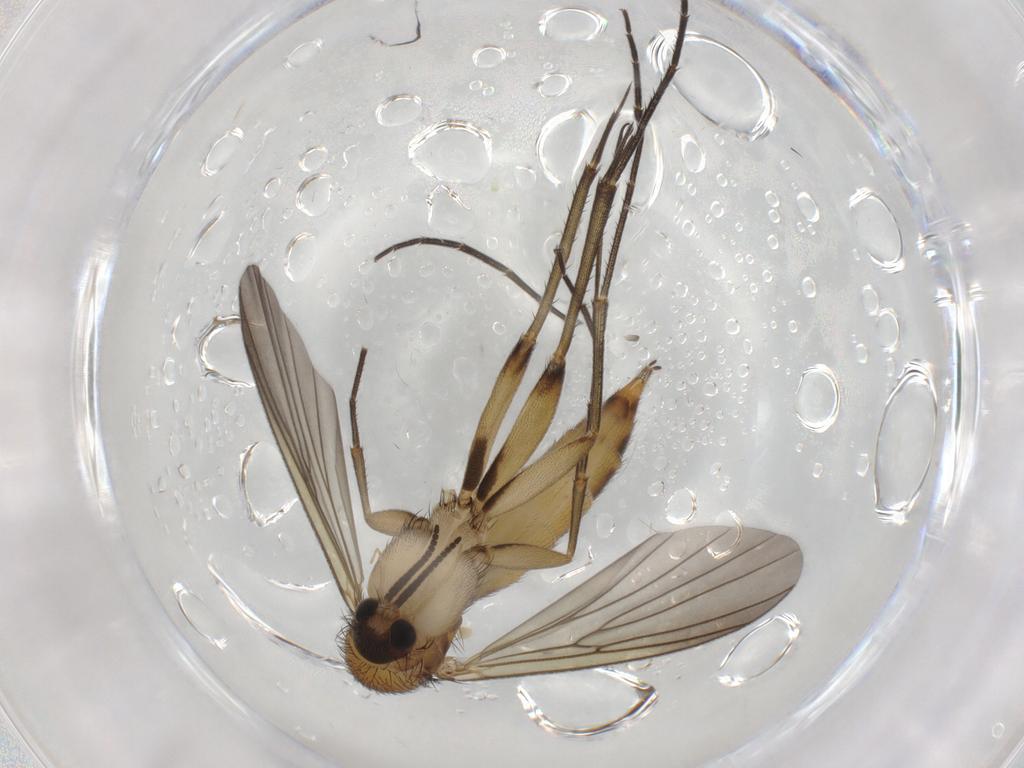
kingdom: Animalia
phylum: Arthropoda
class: Insecta
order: Diptera
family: Mycetophilidae
